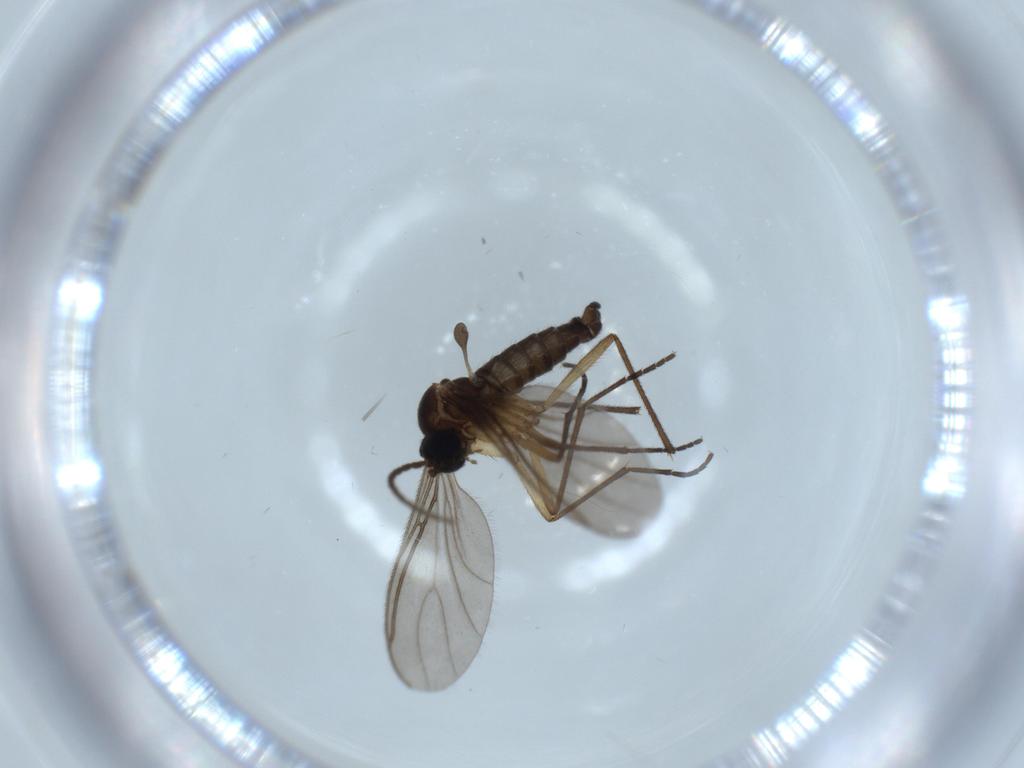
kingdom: Animalia
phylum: Arthropoda
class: Insecta
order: Diptera
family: Sciaridae
